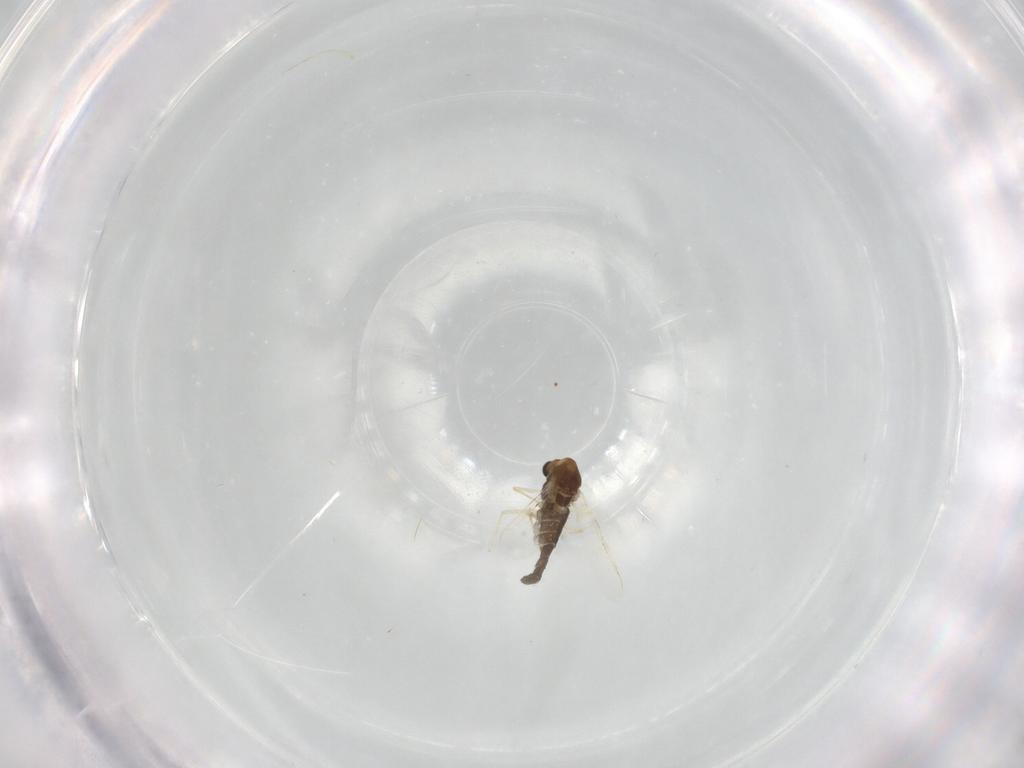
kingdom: Animalia
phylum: Arthropoda
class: Insecta
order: Diptera
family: Chironomidae
